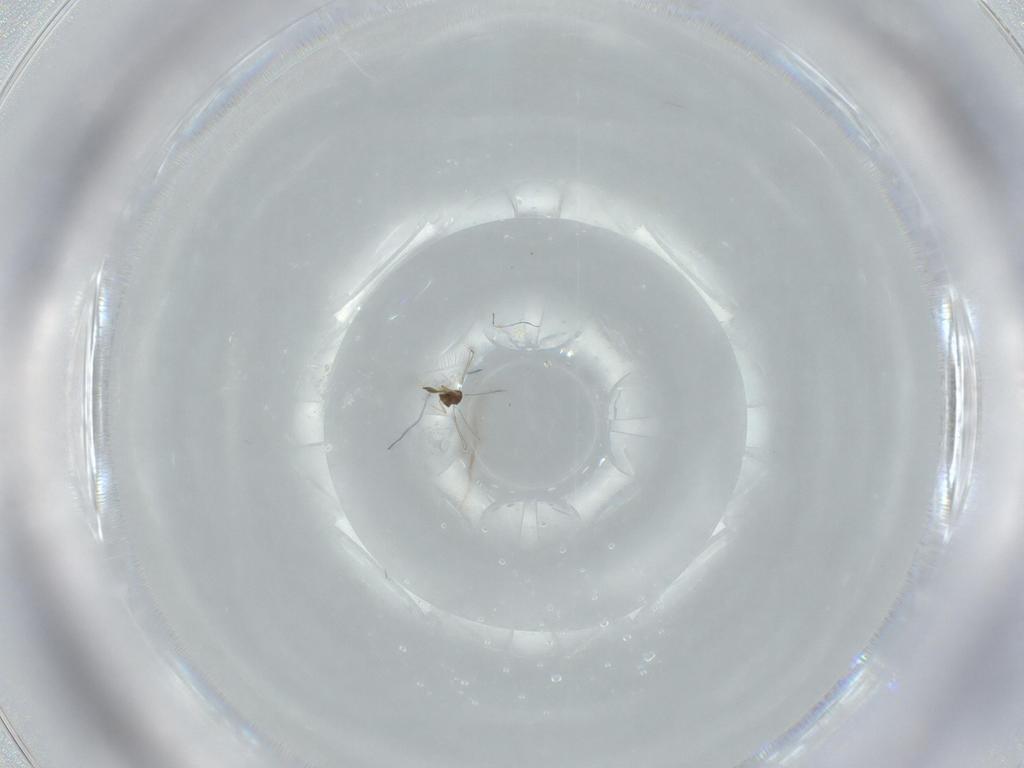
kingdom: Animalia
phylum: Arthropoda
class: Insecta
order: Hymenoptera
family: Mymaridae
